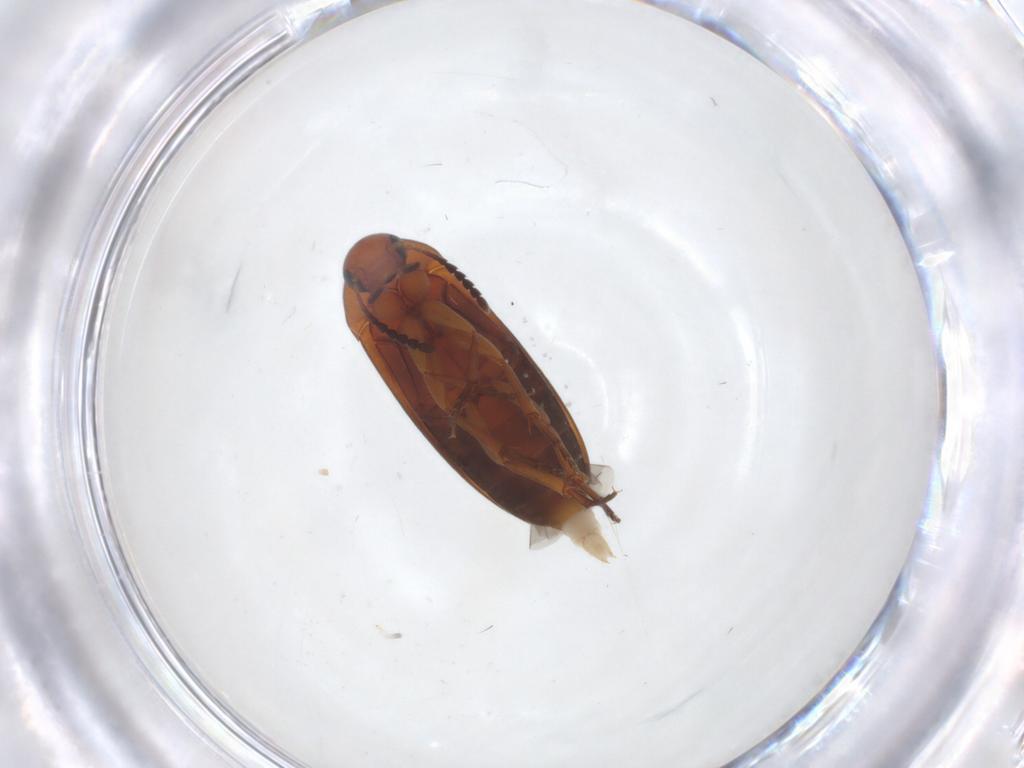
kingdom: Animalia
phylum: Arthropoda
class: Insecta
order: Coleoptera
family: Scraptiidae
